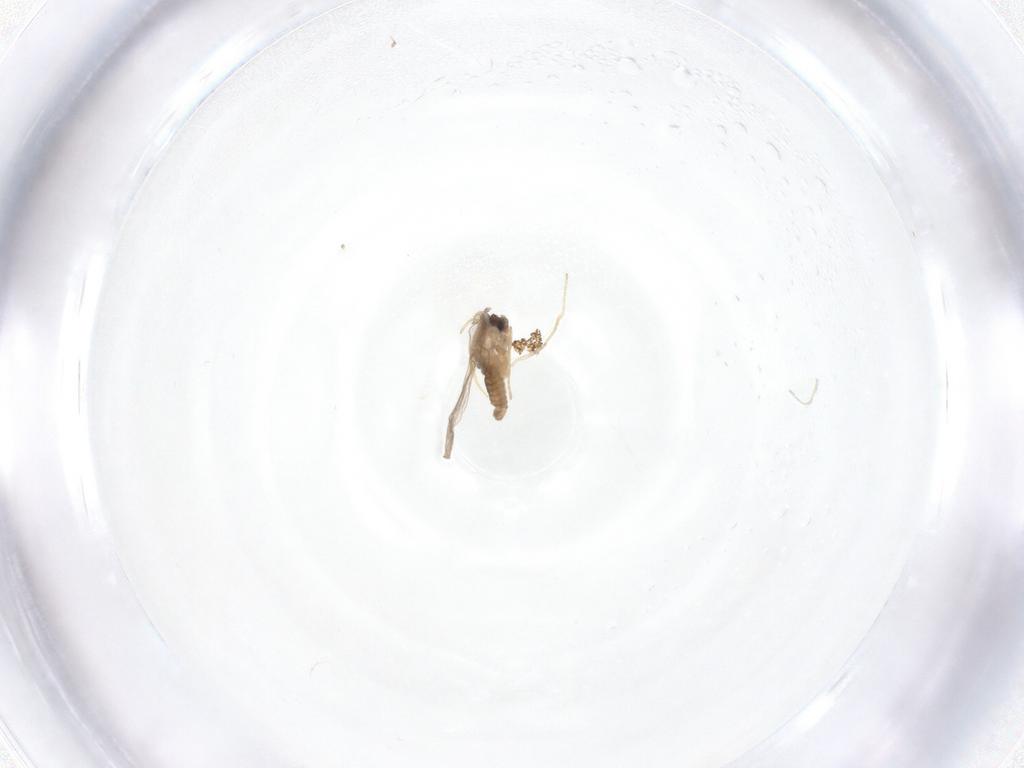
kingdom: Animalia
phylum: Arthropoda
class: Insecta
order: Diptera
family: Cecidomyiidae
